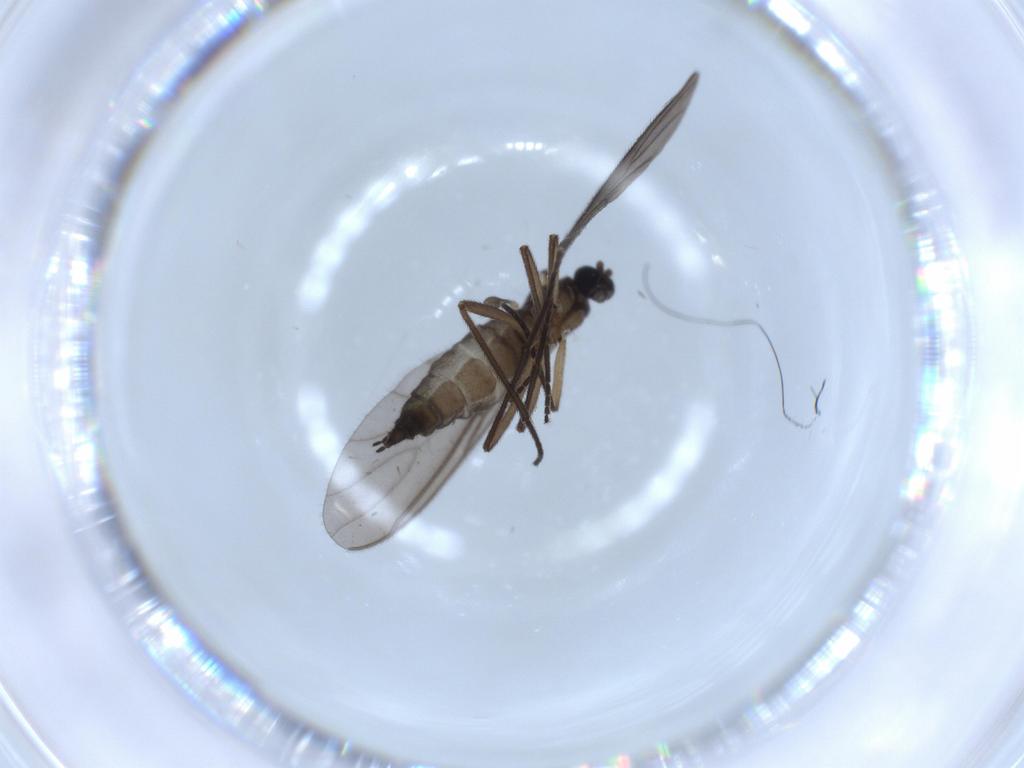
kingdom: Animalia
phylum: Arthropoda
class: Insecta
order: Diptera
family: Sciaridae
